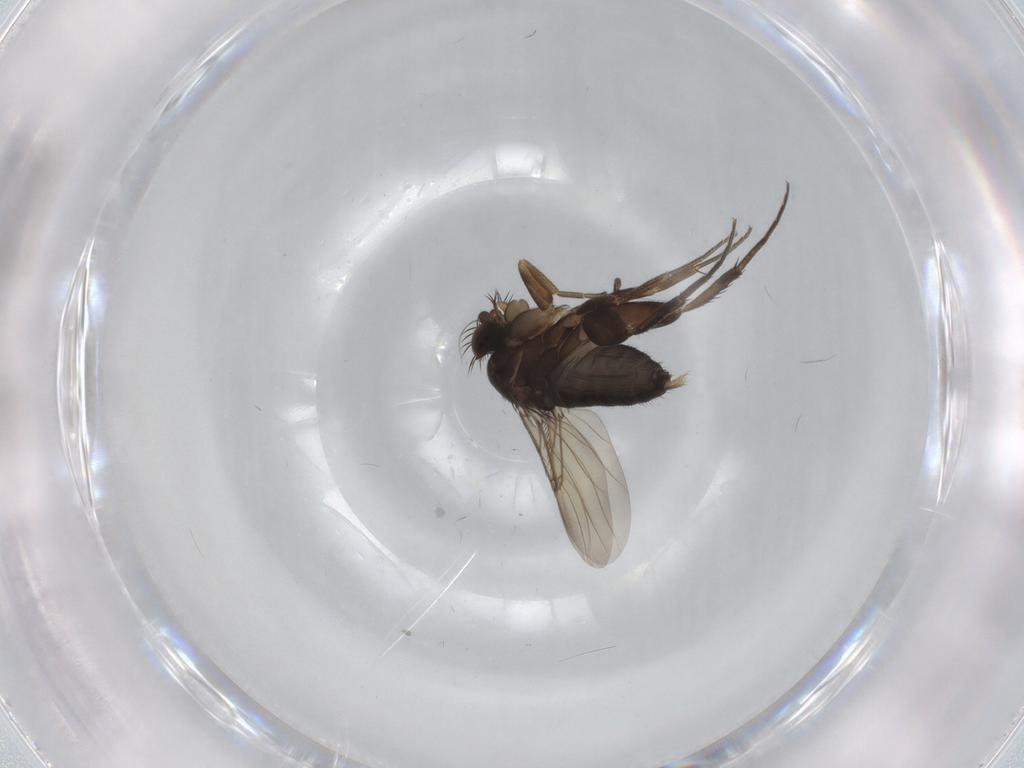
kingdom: Animalia
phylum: Arthropoda
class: Insecta
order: Diptera
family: Phoridae
